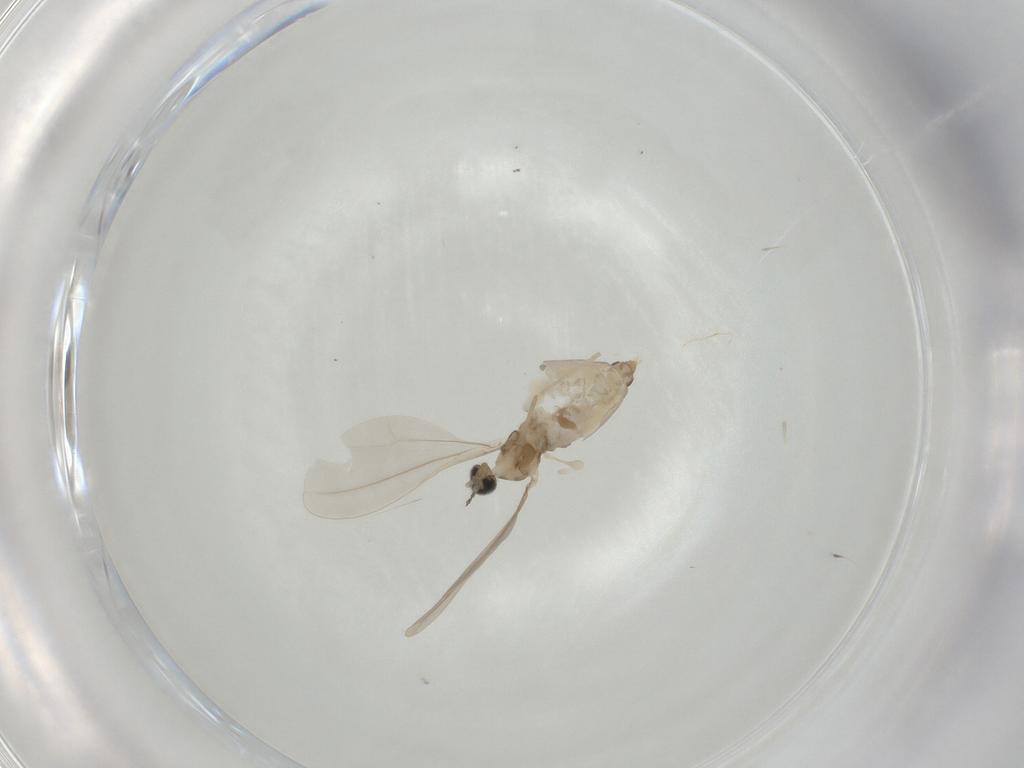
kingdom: Animalia
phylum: Arthropoda
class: Insecta
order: Diptera
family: Cecidomyiidae
